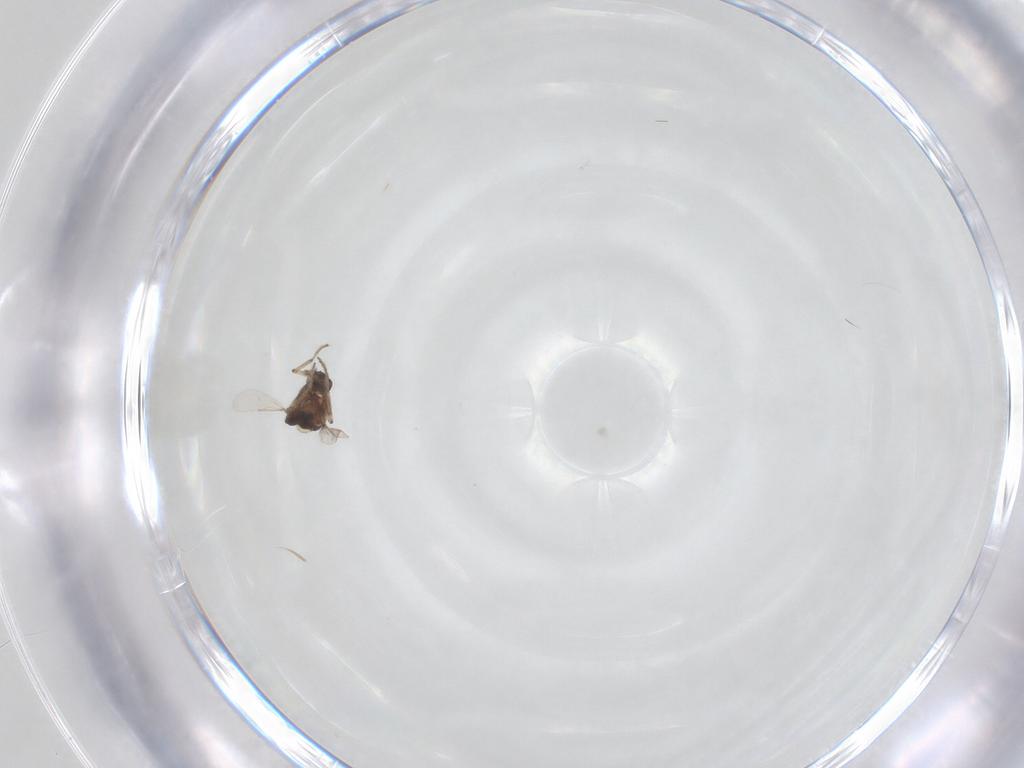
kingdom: Animalia
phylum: Arthropoda
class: Insecta
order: Diptera
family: Ceratopogonidae
